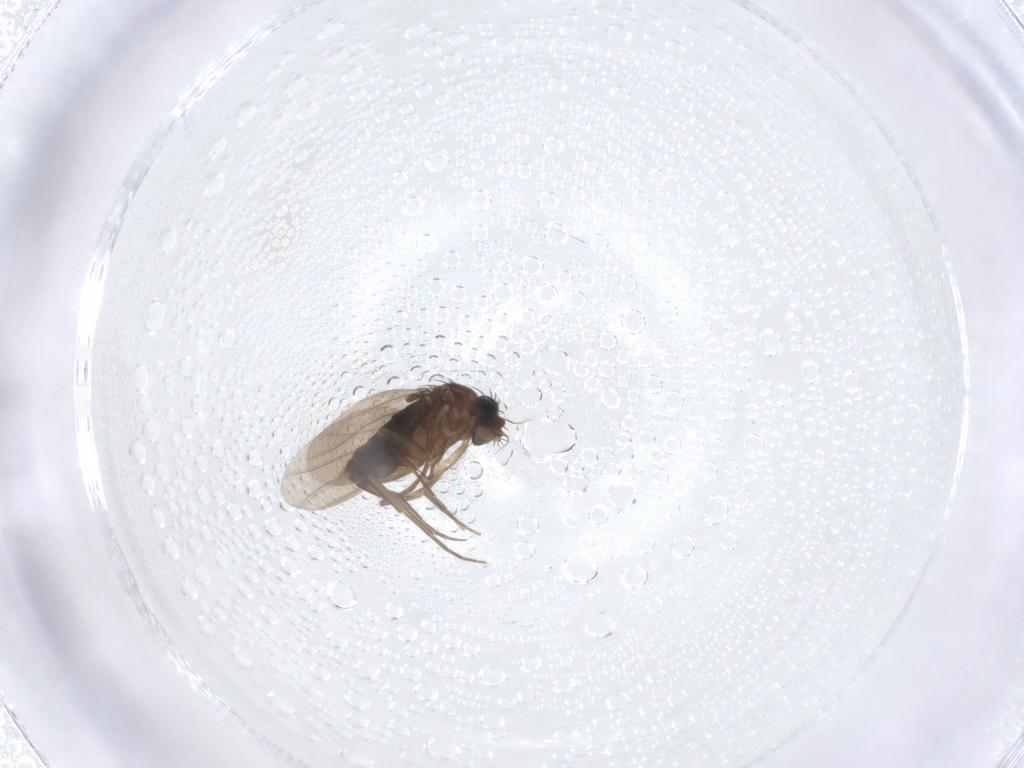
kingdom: Animalia
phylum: Arthropoda
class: Insecta
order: Diptera
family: Phoridae
